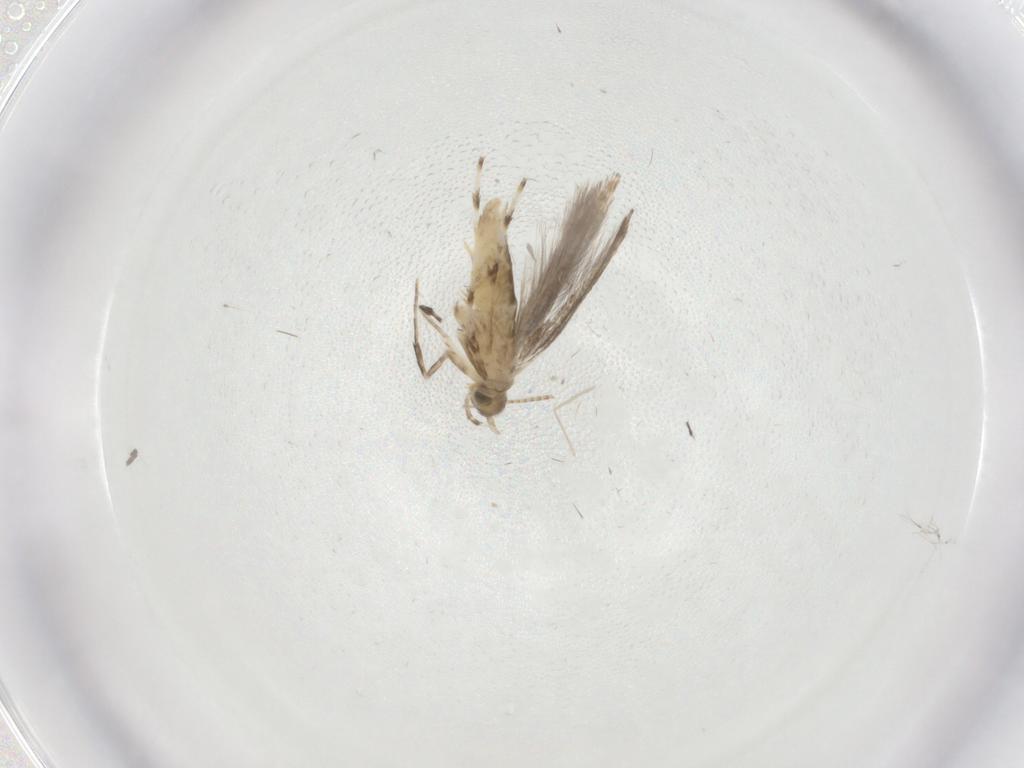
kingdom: Animalia
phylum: Arthropoda
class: Insecta
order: Lepidoptera
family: Gracillariidae
